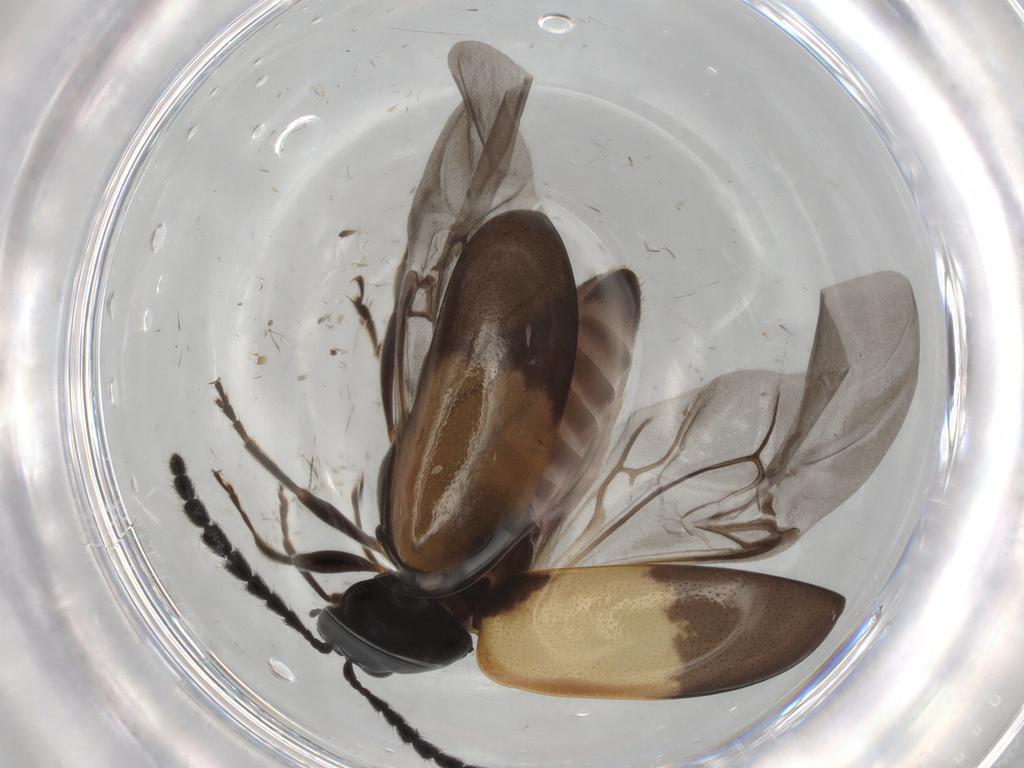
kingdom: Animalia
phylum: Arthropoda
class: Insecta
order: Coleoptera
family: Chrysomelidae
